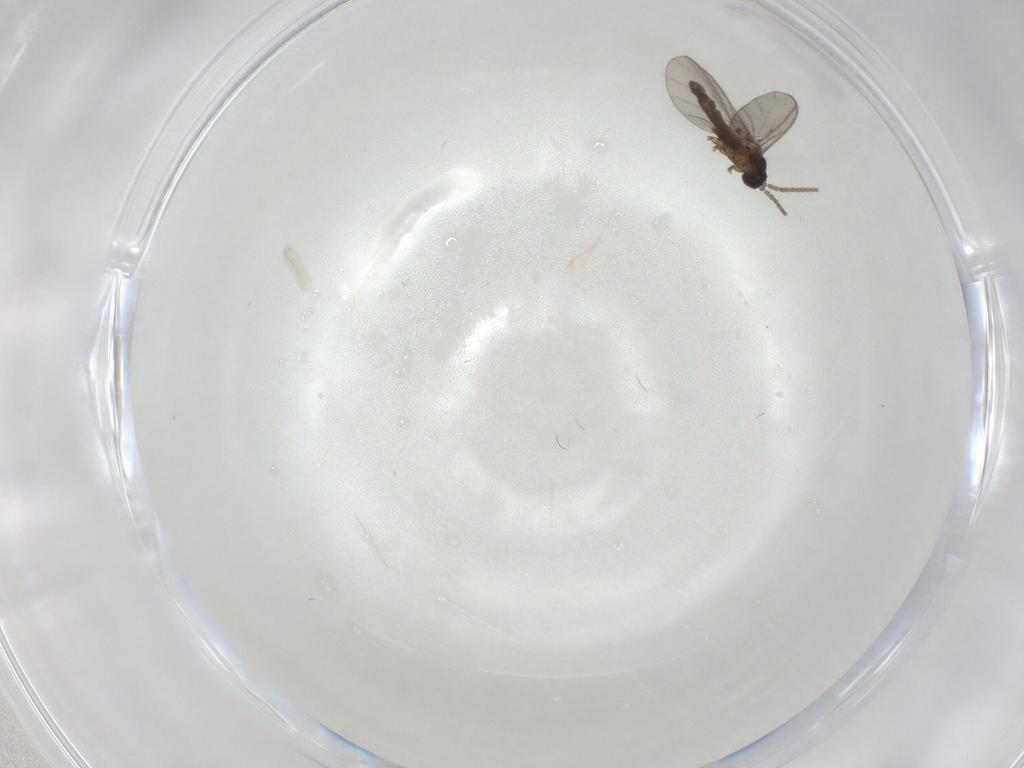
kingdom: Animalia
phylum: Arthropoda
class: Insecta
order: Diptera
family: Sciaridae
